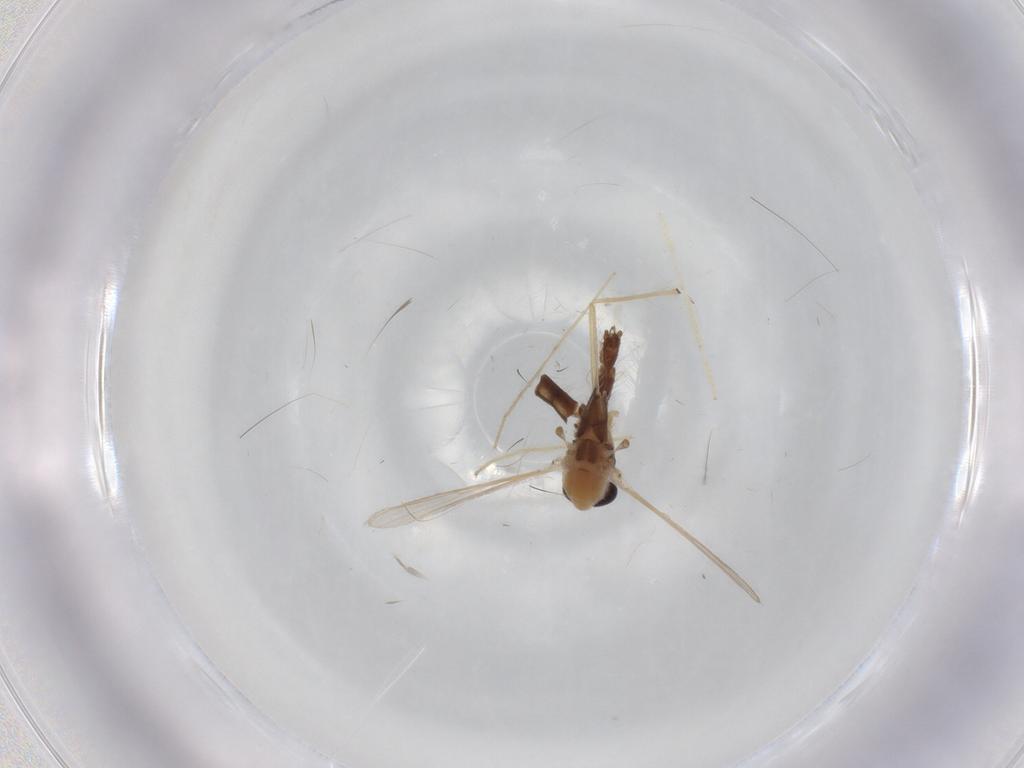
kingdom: Animalia
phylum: Arthropoda
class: Insecta
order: Diptera
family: Chironomidae
